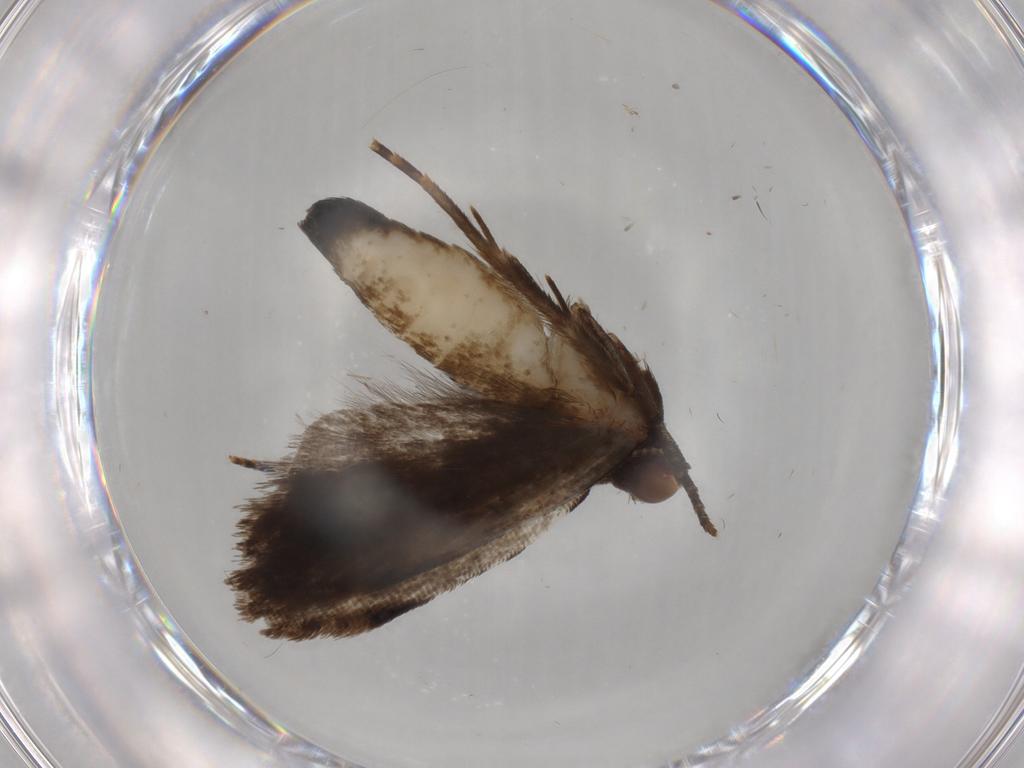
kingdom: Animalia
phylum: Arthropoda
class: Insecta
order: Lepidoptera
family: Gelechiidae
